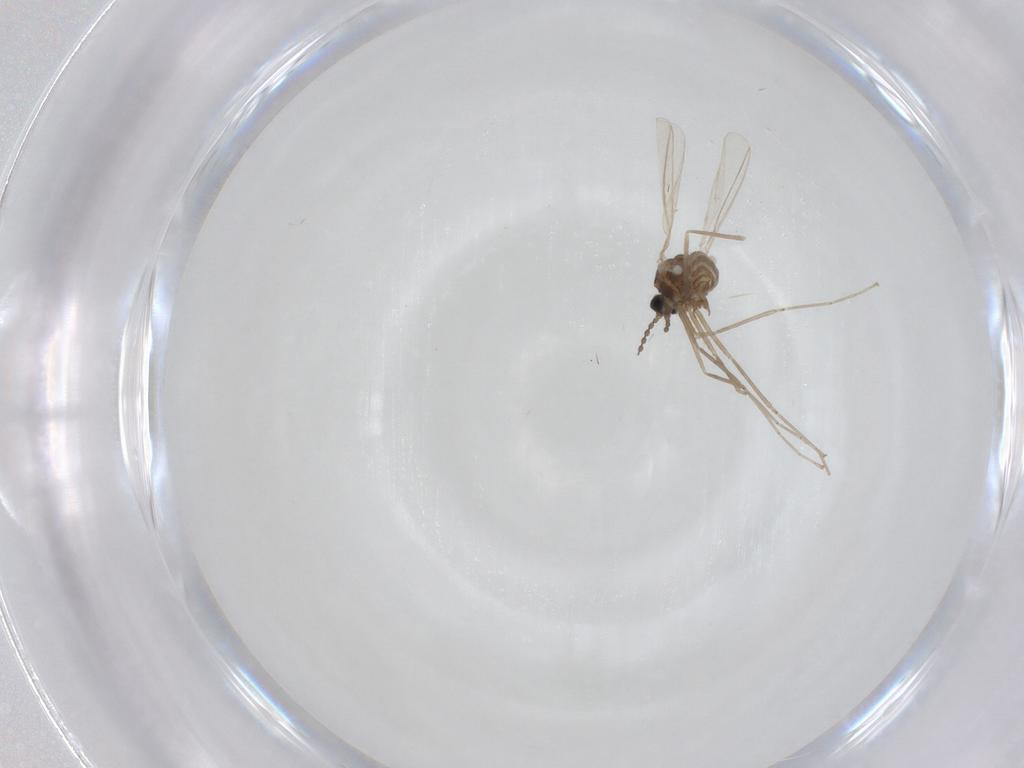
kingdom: Animalia
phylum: Arthropoda
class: Insecta
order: Diptera
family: Cecidomyiidae
